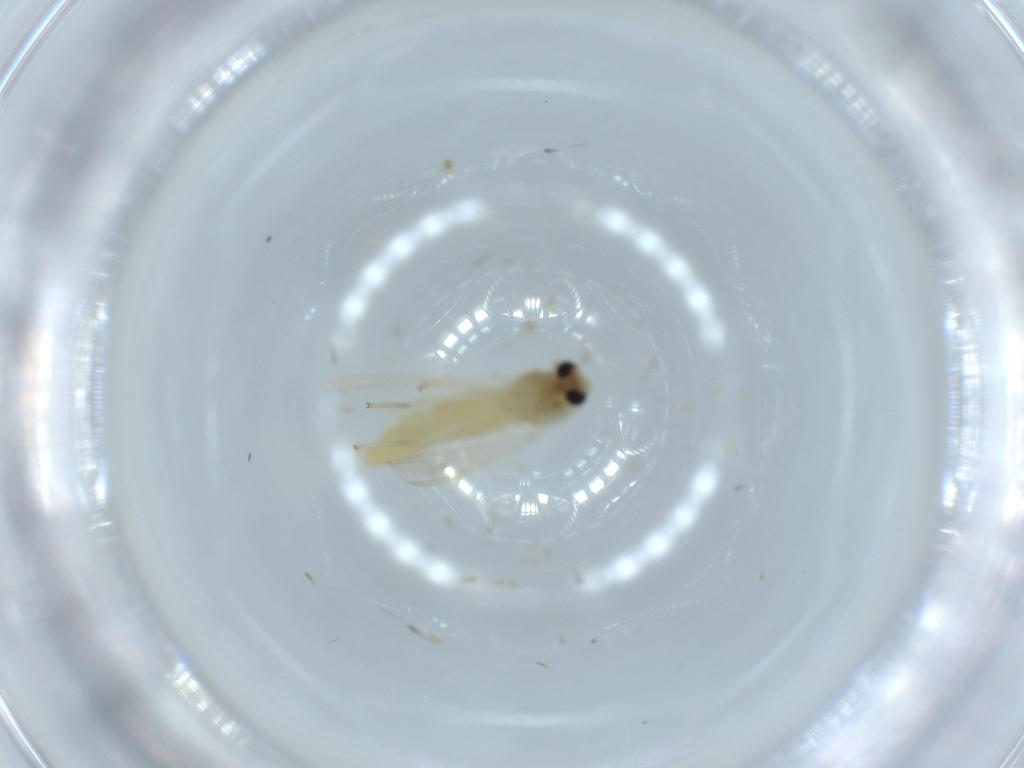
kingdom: Animalia
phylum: Arthropoda
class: Insecta
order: Diptera
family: Chironomidae
